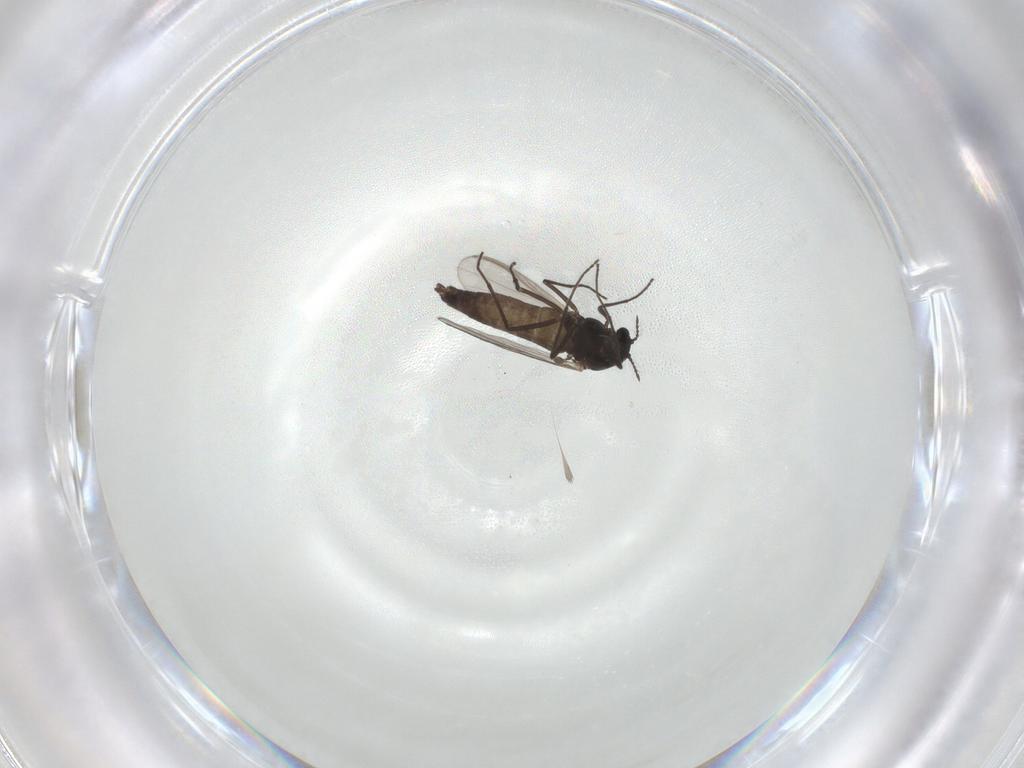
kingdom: Animalia
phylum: Arthropoda
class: Insecta
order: Diptera
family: Chironomidae
